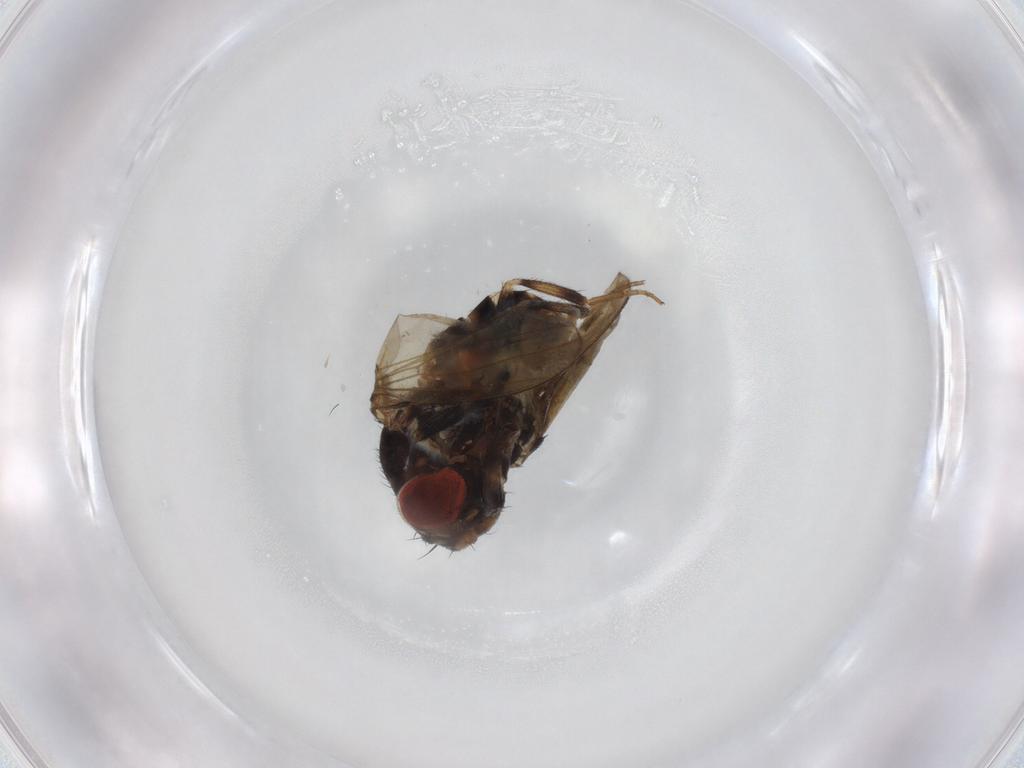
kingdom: Animalia
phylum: Arthropoda
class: Insecta
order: Diptera
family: Drosophilidae
